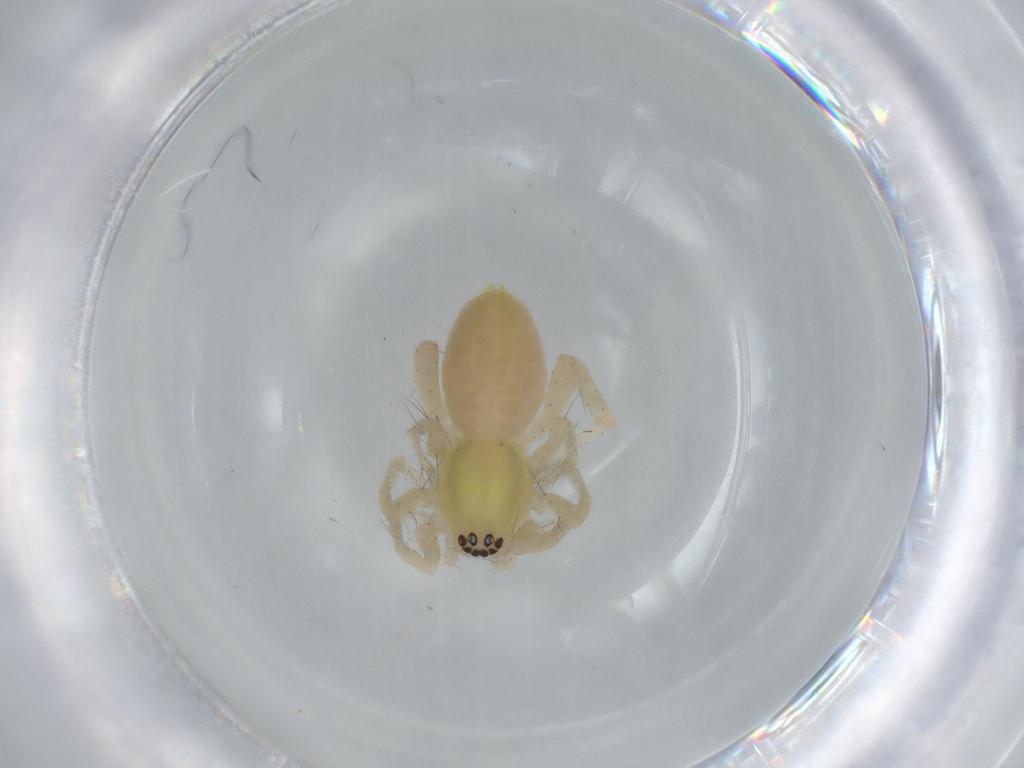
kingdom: Animalia
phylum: Arthropoda
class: Arachnida
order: Araneae
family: Anyphaenidae
